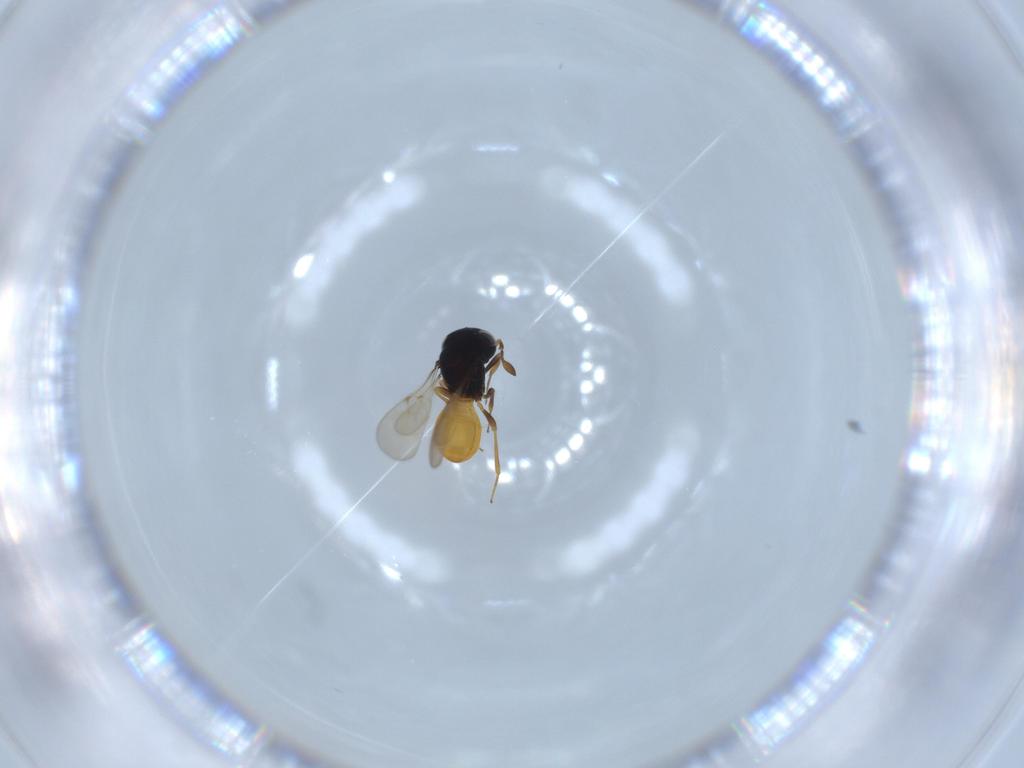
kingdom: Animalia
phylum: Arthropoda
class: Insecta
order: Hymenoptera
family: Scelionidae
